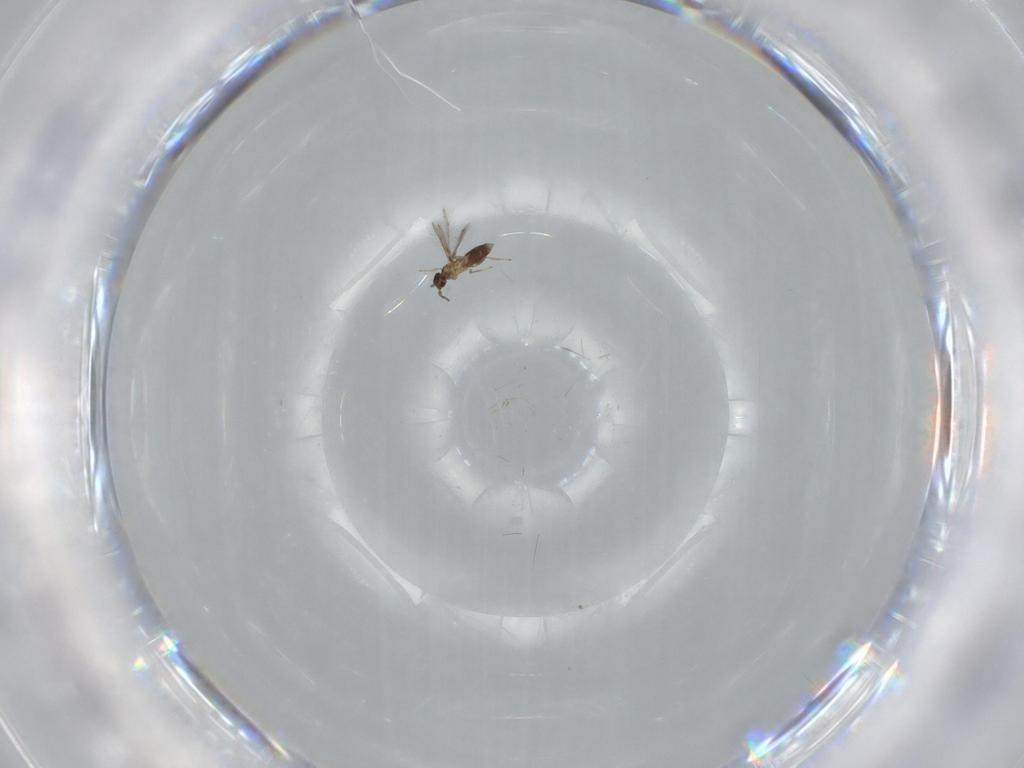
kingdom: Animalia
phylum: Arthropoda
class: Insecta
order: Hymenoptera
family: Mymaridae
